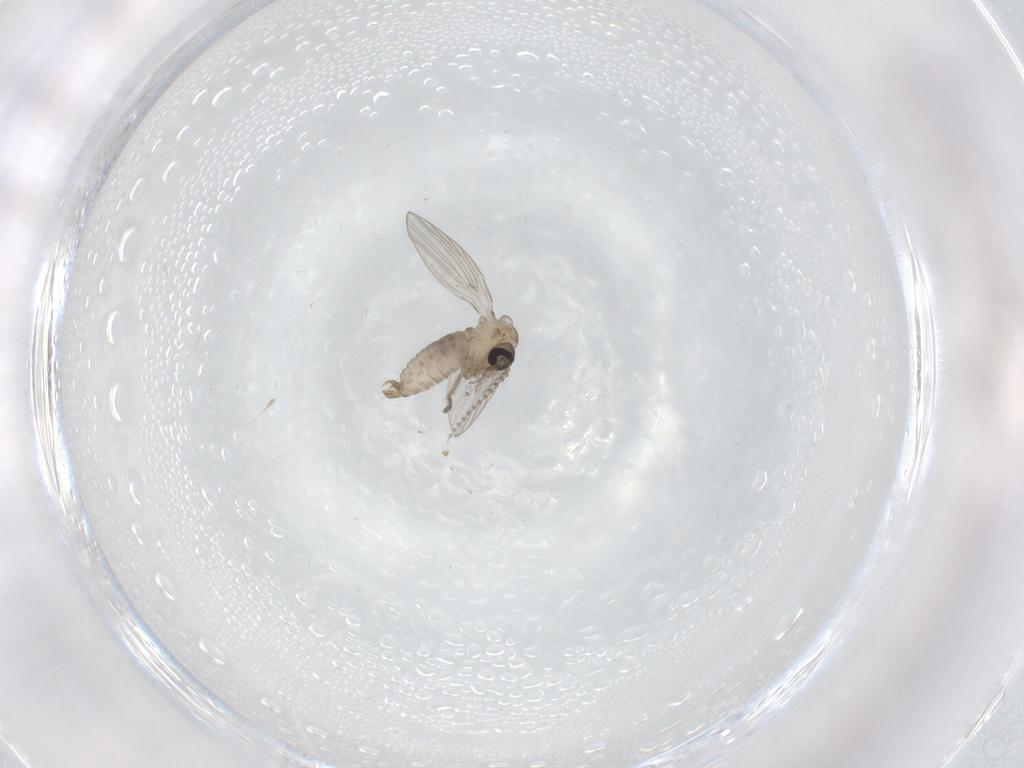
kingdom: Animalia
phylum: Arthropoda
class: Insecta
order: Diptera
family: Psychodidae
